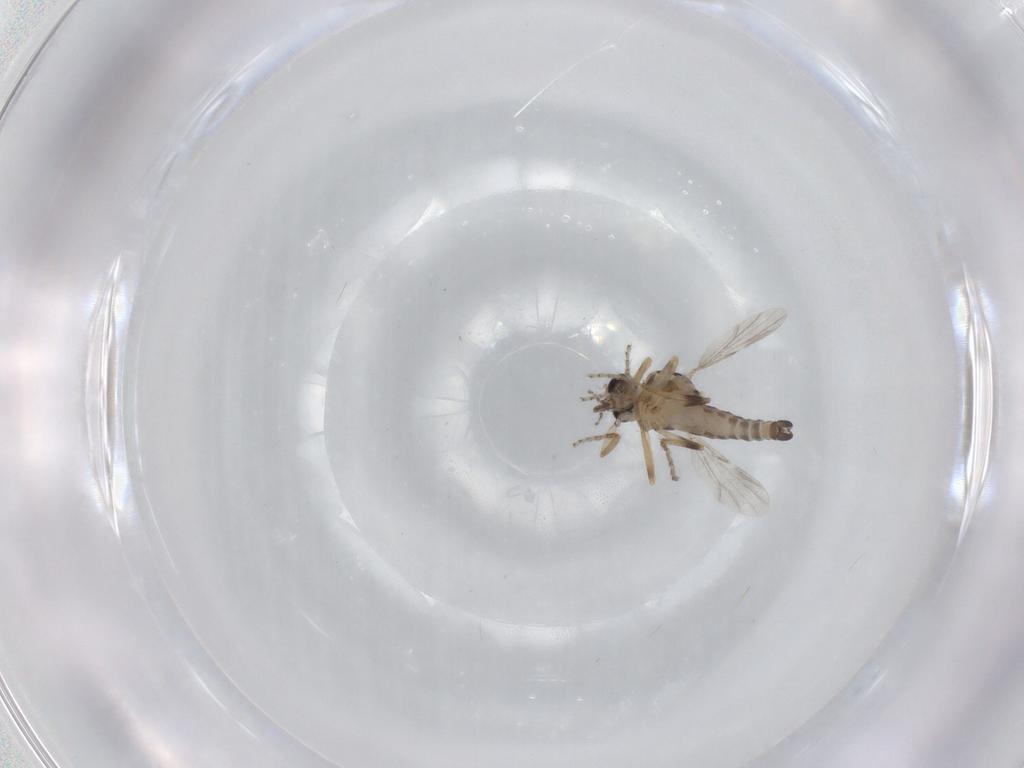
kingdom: Animalia
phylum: Arthropoda
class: Insecta
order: Diptera
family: Ceratopogonidae
